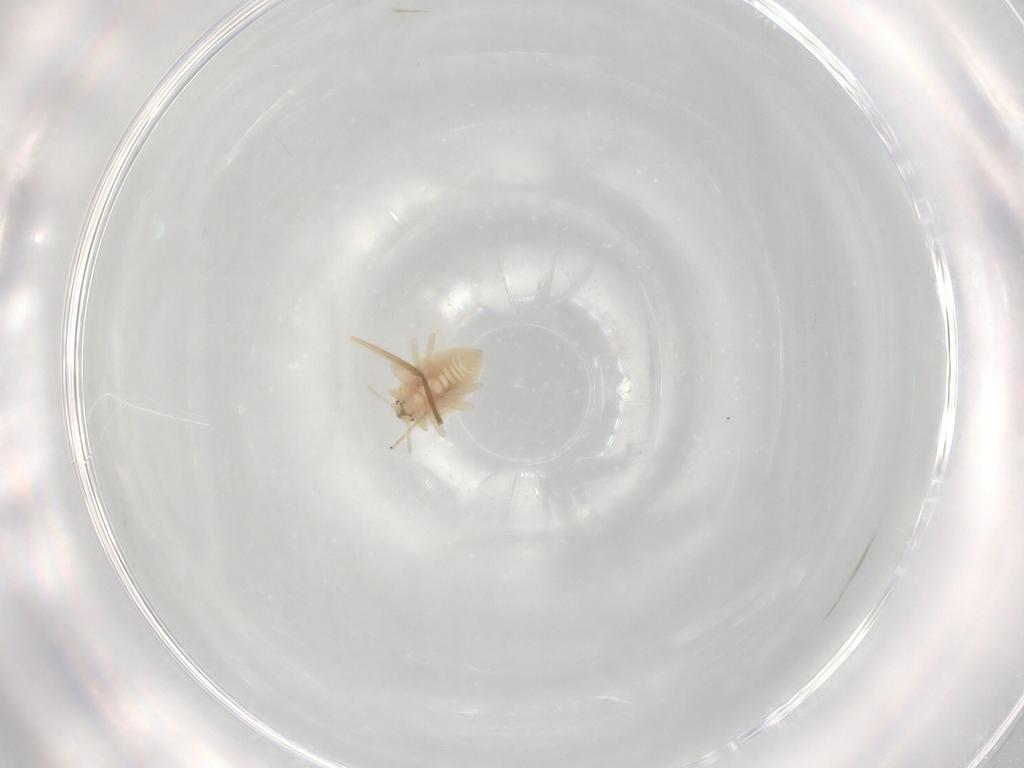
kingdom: Animalia
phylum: Arthropoda
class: Insecta
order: Neuroptera
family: Coniopterygidae
